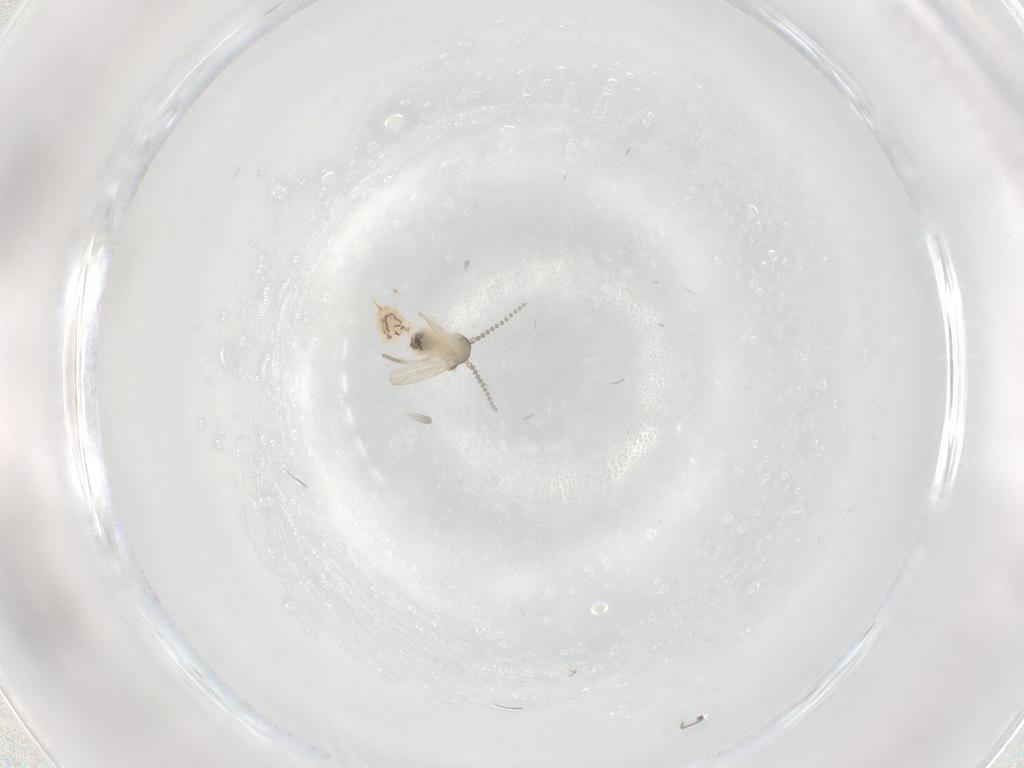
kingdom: Animalia
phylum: Arthropoda
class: Insecta
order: Diptera
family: Psychodidae
